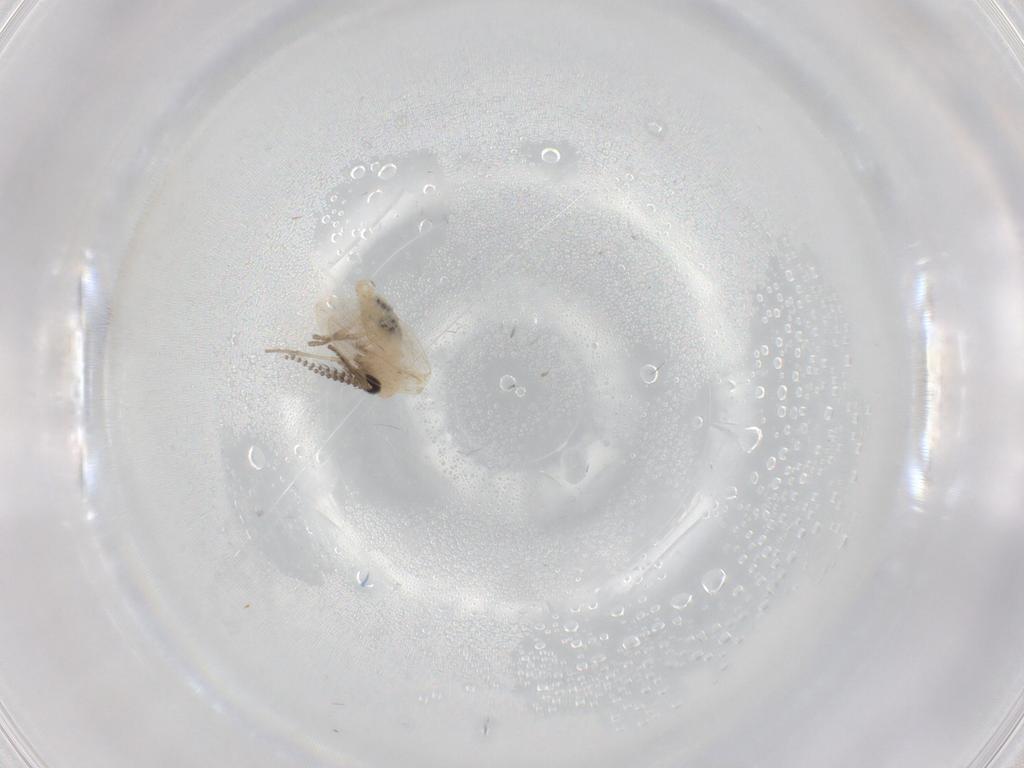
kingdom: Animalia
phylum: Arthropoda
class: Insecta
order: Diptera
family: Psychodidae
